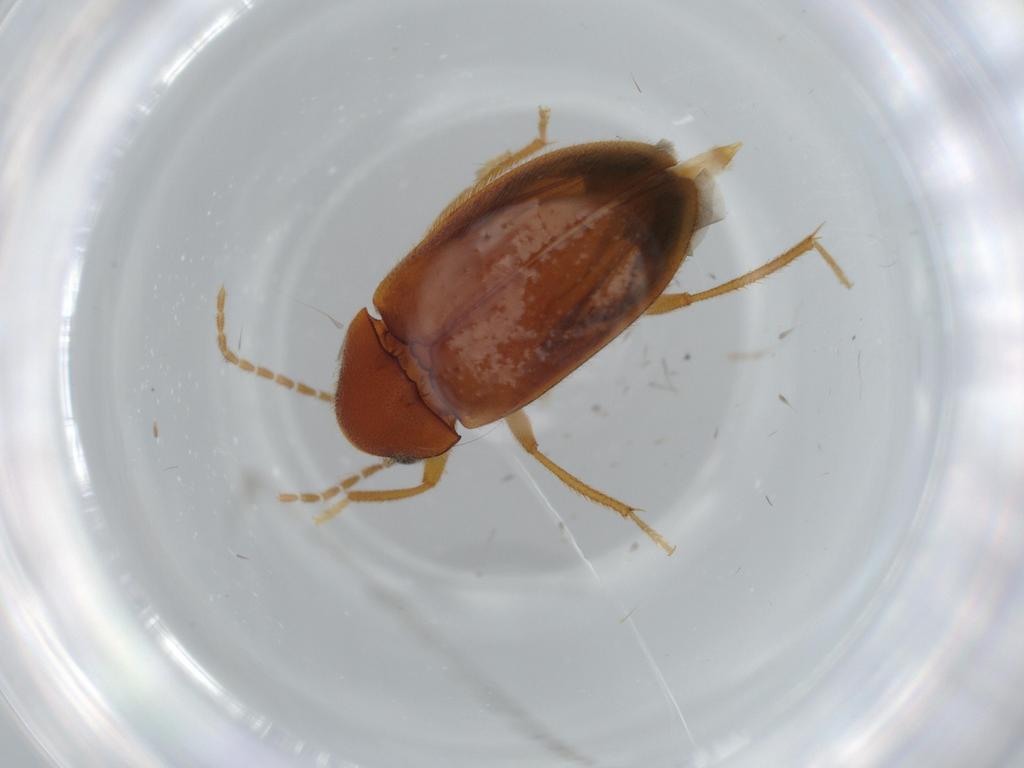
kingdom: Animalia
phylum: Arthropoda
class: Insecta
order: Coleoptera
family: Ptilodactylidae
